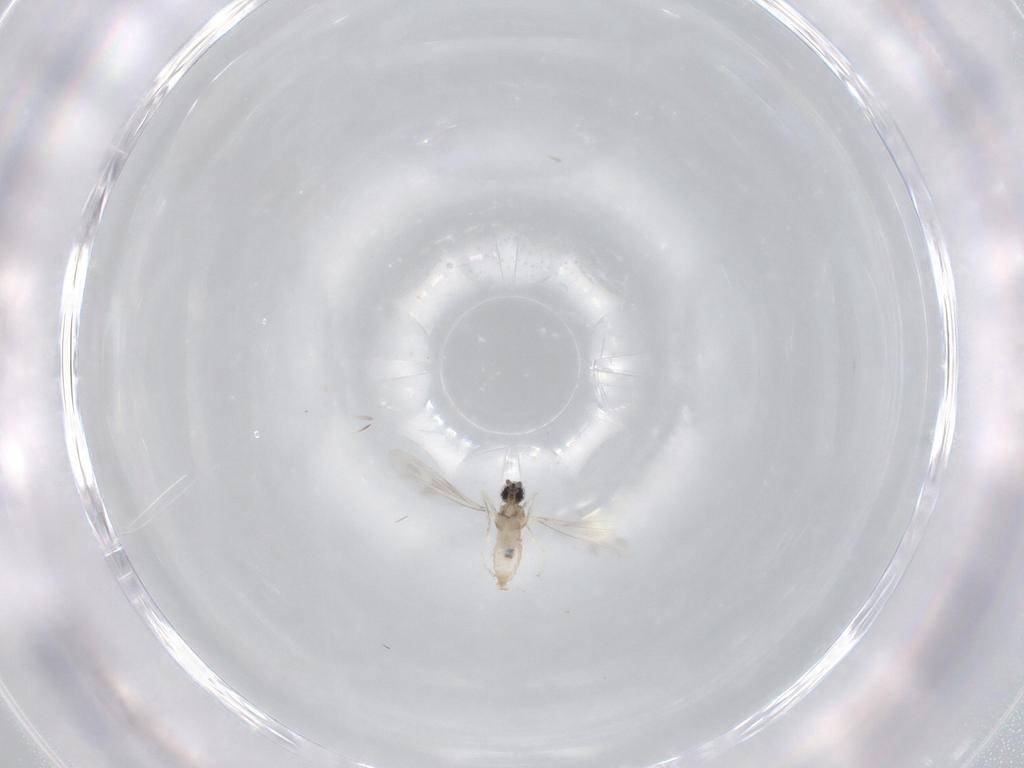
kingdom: Animalia
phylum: Arthropoda
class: Insecta
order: Diptera
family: Cecidomyiidae
